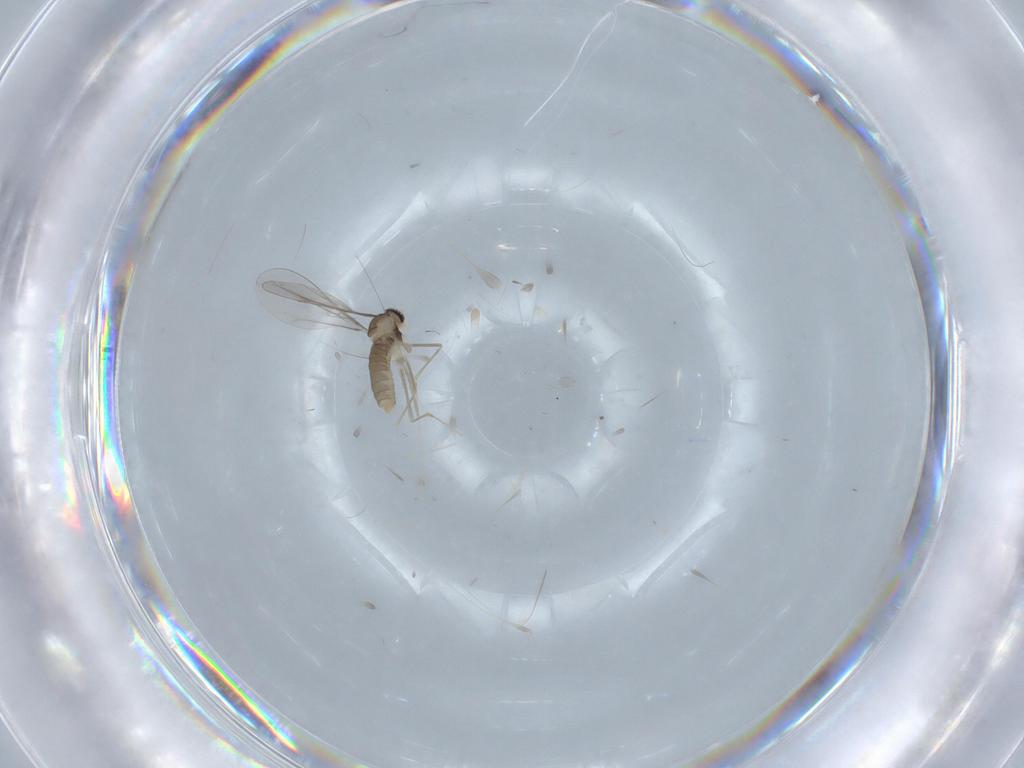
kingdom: Animalia
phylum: Arthropoda
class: Insecta
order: Diptera
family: Cecidomyiidae
